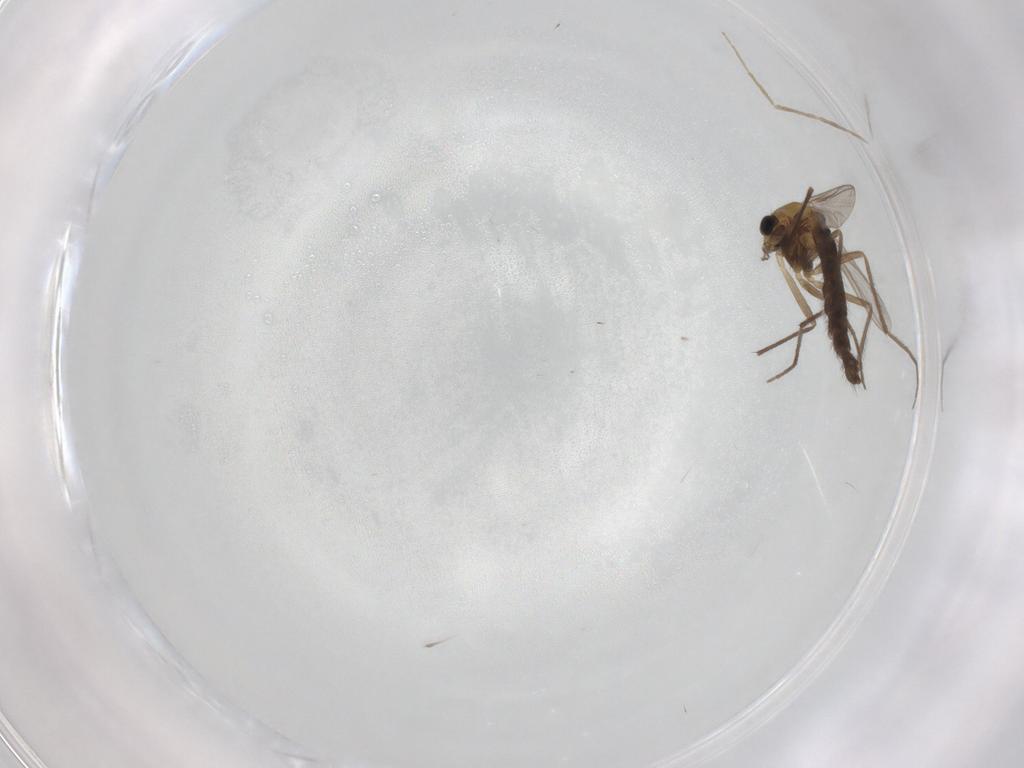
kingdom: Animalia
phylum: Arthropoda
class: Insecta
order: Diptera
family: Chironomidae
